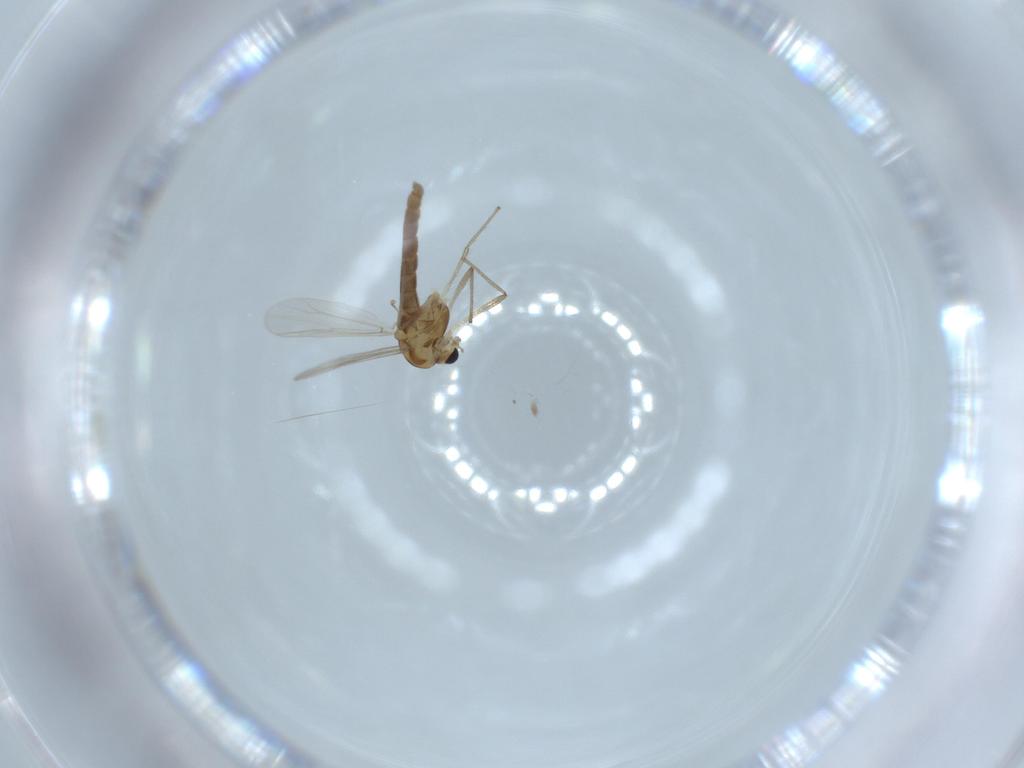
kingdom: Animalia
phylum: Arthropoda
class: Insecta
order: Diptera
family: Chironomidae
